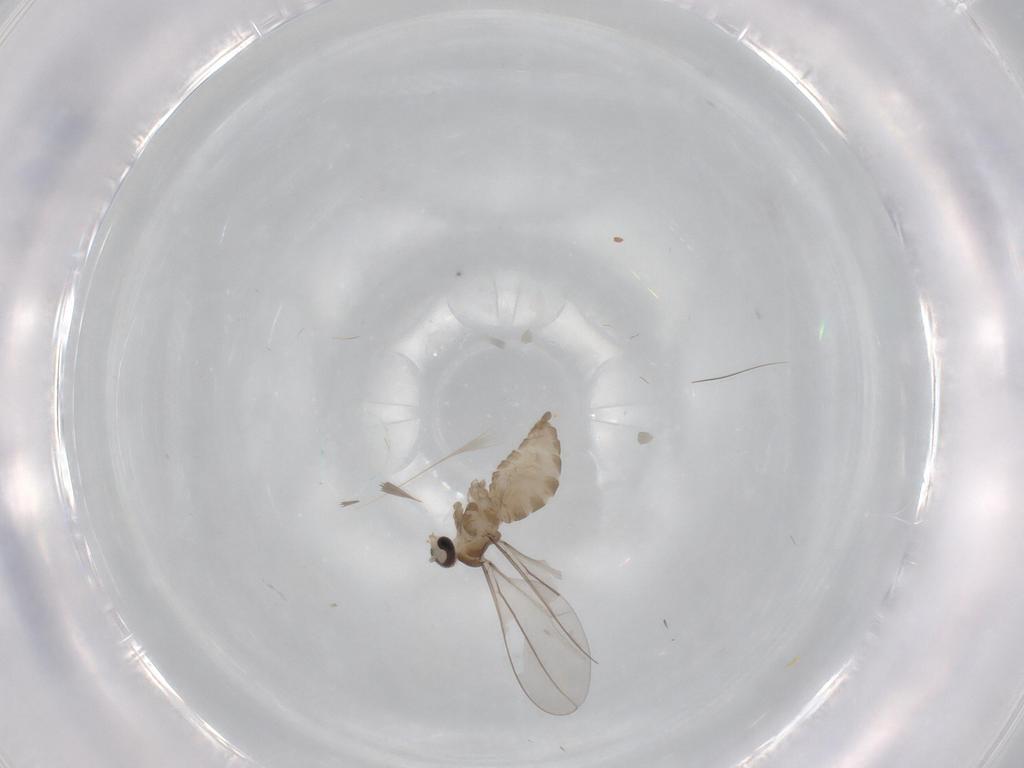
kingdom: Animalia
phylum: Arthropoda
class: Insecta
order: Diptera
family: Cecidomyiidae
